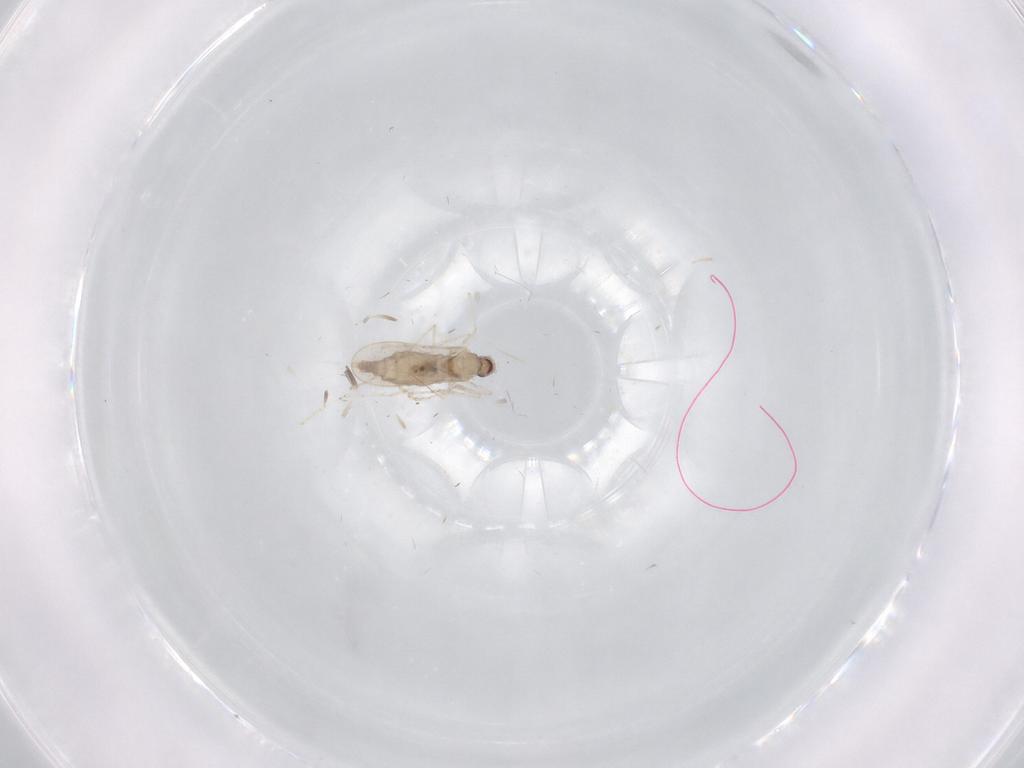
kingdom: Animalia
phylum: Arthropoda
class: Insecta
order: Diptera
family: Cecidomyiidae
